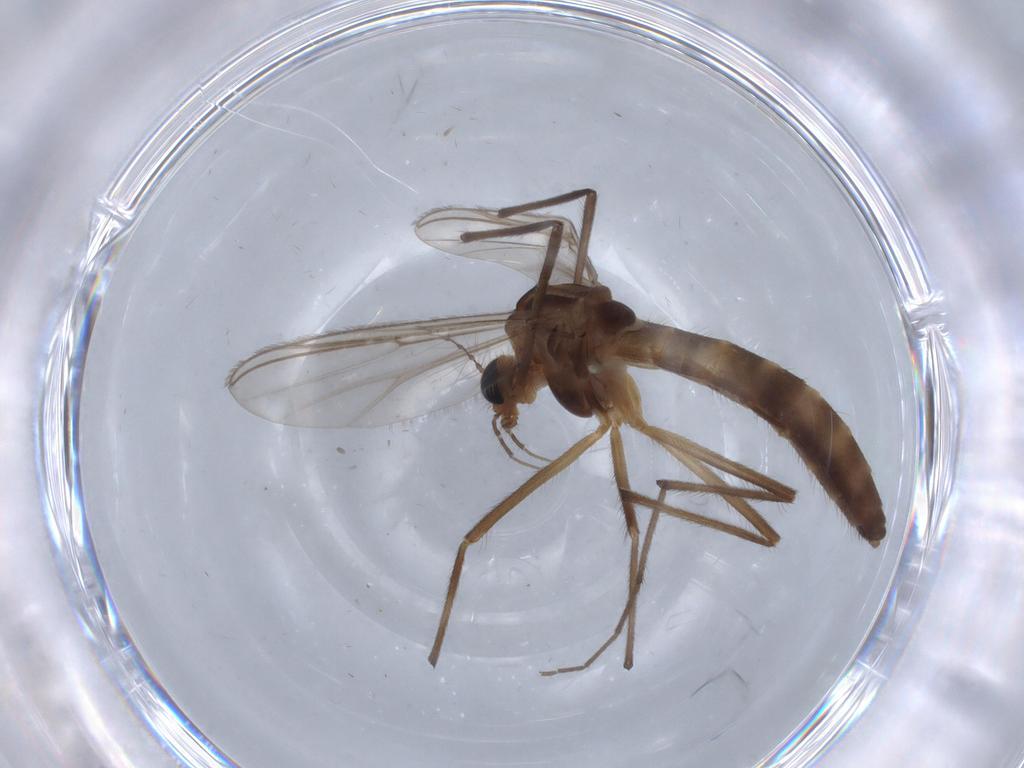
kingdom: Animalia
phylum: Arthropoda
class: Insecta
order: Diptera
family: Chironomidae
